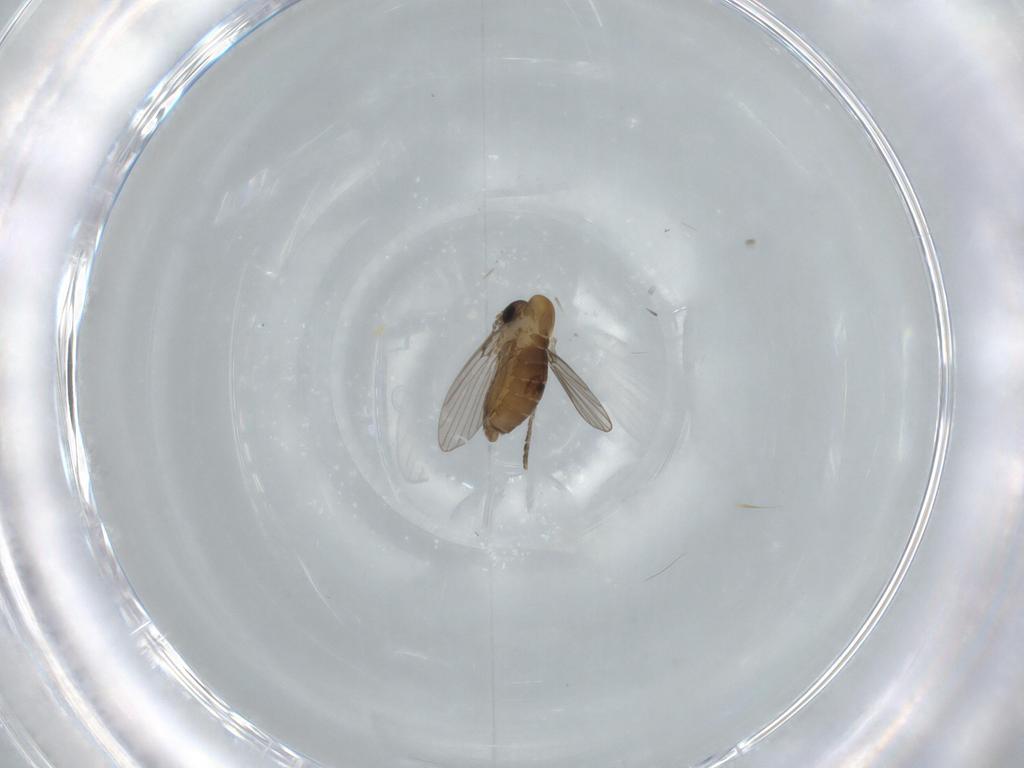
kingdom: Animalia
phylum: Arthropoda
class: Insecta
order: Diptera
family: Psychodidae
